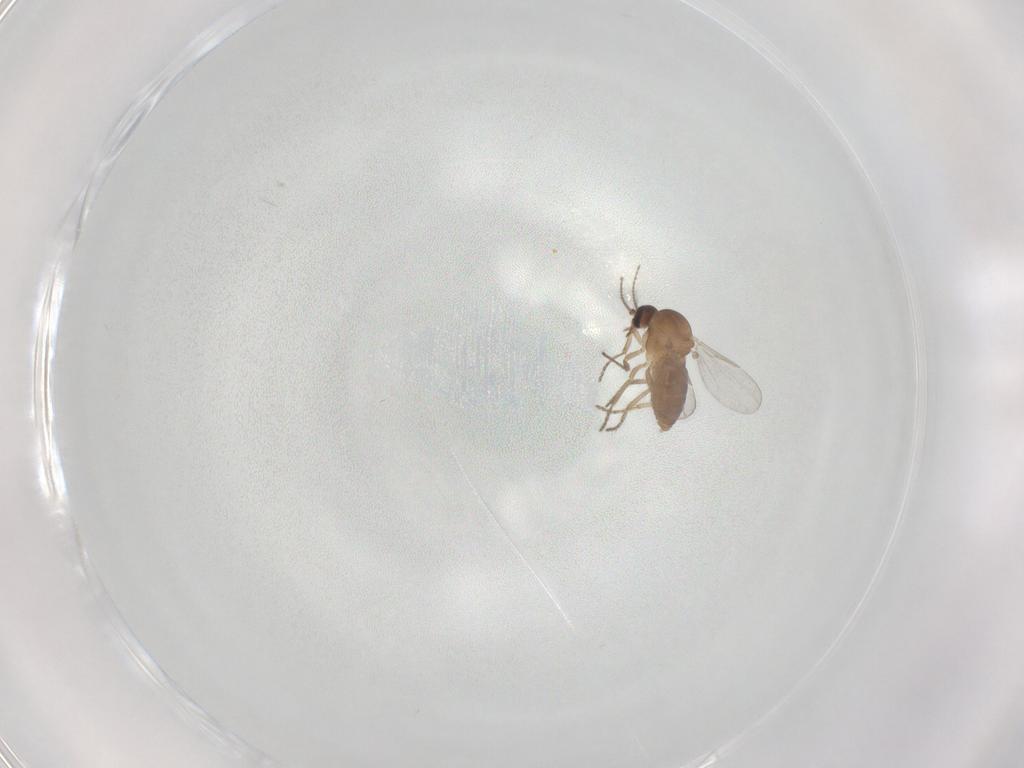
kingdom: Animalia
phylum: Arthropoda
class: Insecta
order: Diptera
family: Ceratopogonidae
